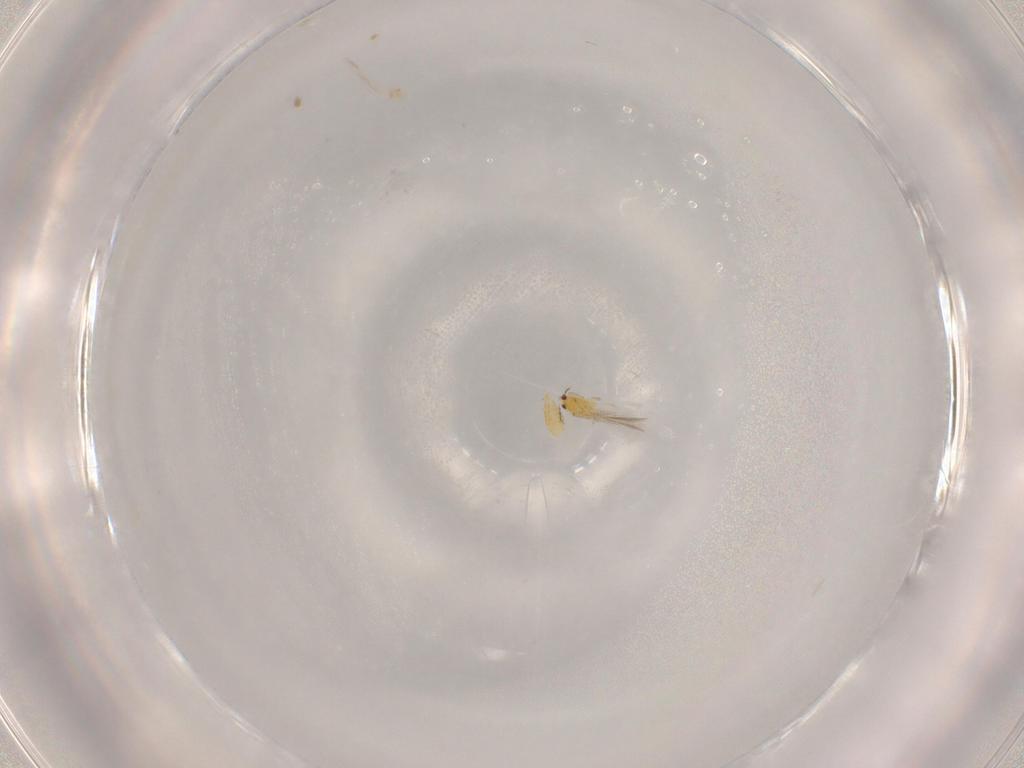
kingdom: Animalia
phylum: Arthropoda
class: Insecta
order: Thysanoptera
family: Thripidae
